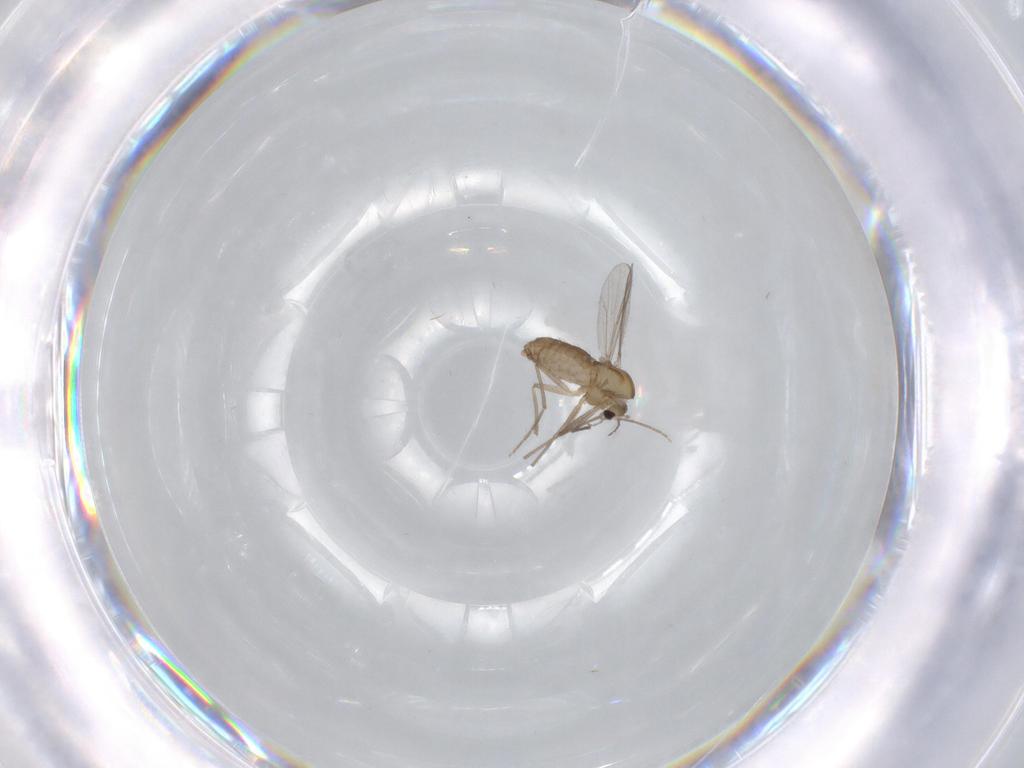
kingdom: Animalia
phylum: Arthropoda
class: Insecta
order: Diptera
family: Chironomidae
